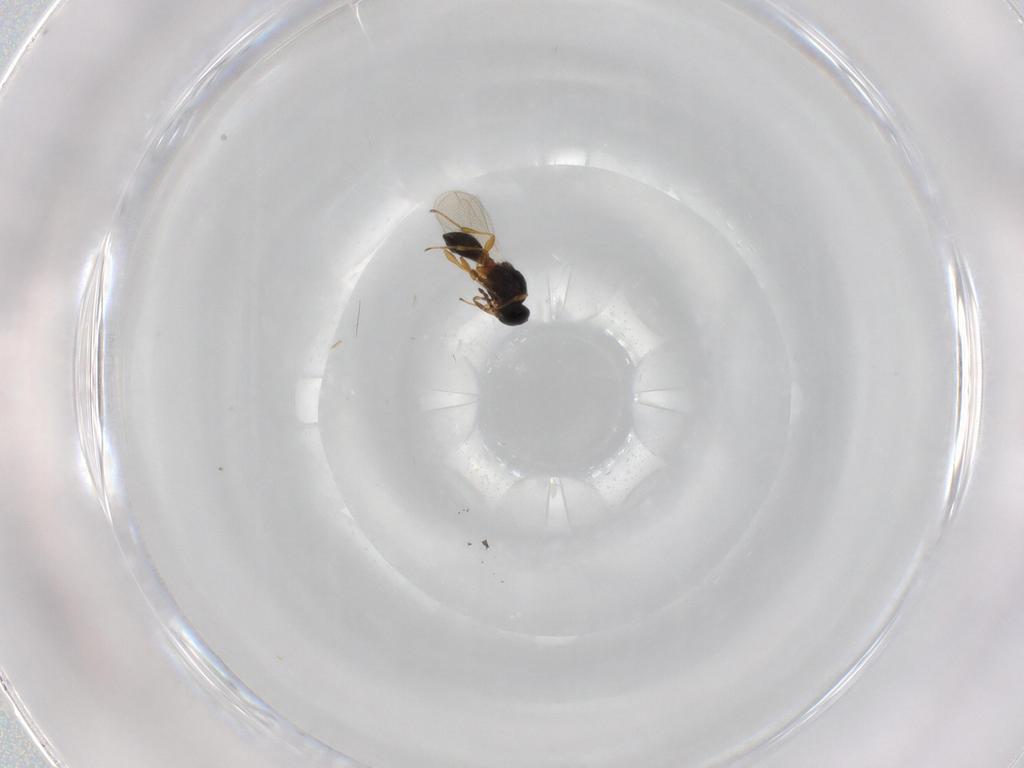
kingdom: Animalia
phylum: Arthropoda
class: Insecta
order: Hymenoptera
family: Platygastridae
